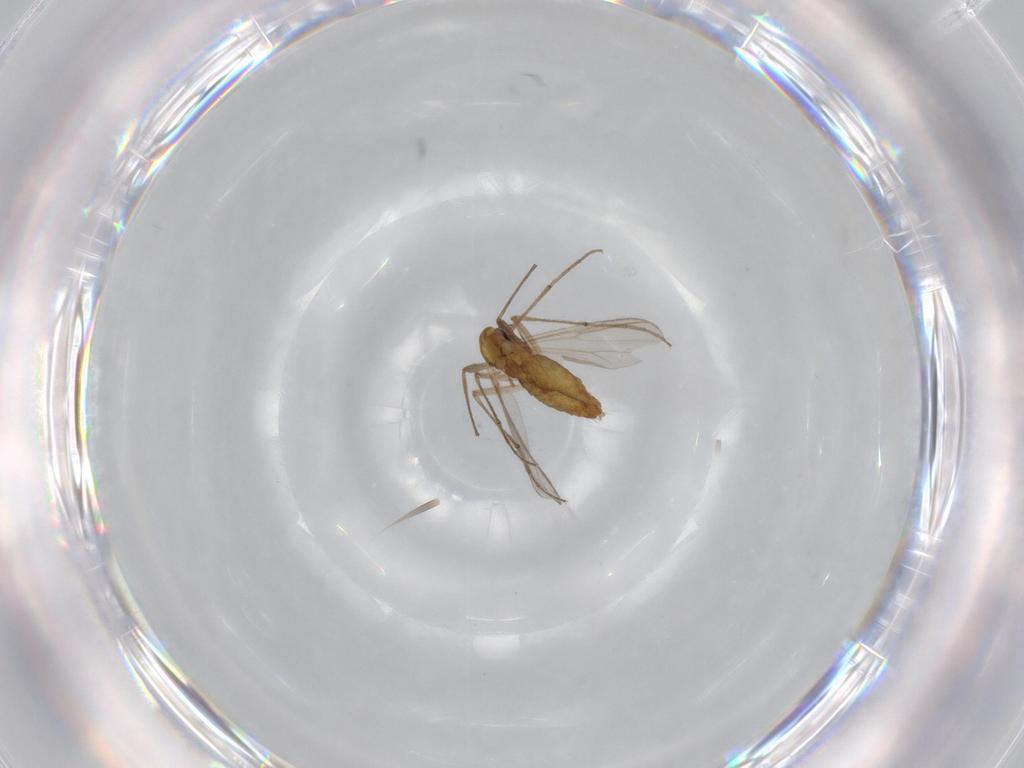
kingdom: Animalia
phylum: Arthropoda
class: Insecta
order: Diptera
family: Chironomidae
